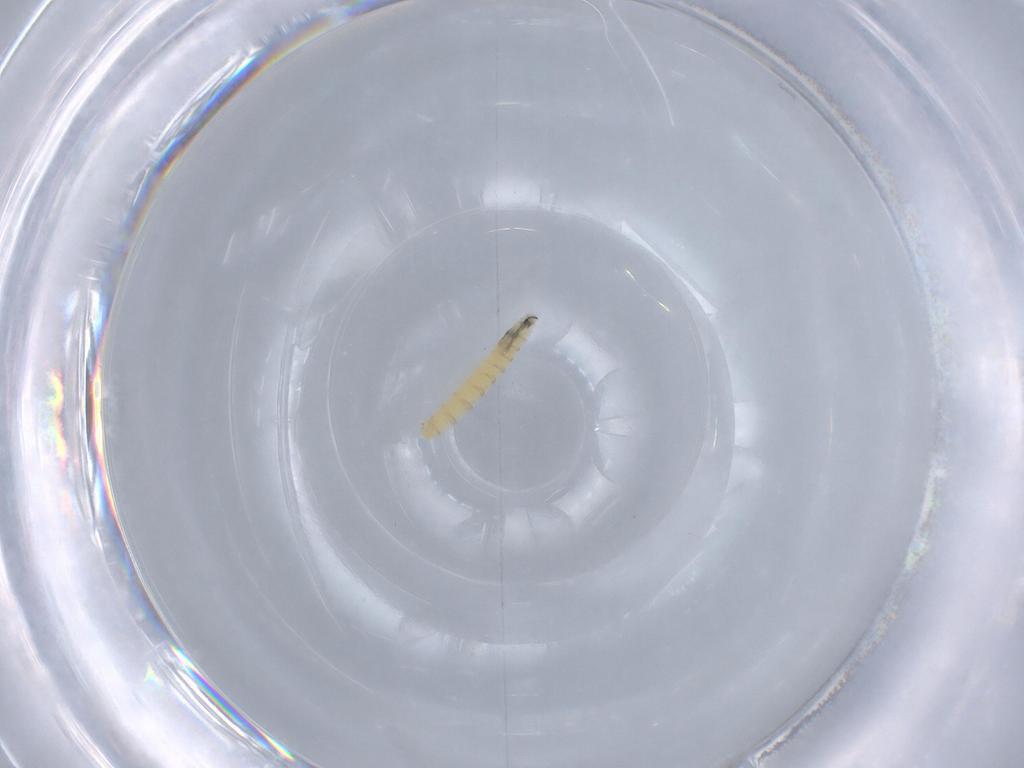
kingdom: Animalia
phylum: Arthropoda
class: Insecta
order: Diptera
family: Sarcophagidae
